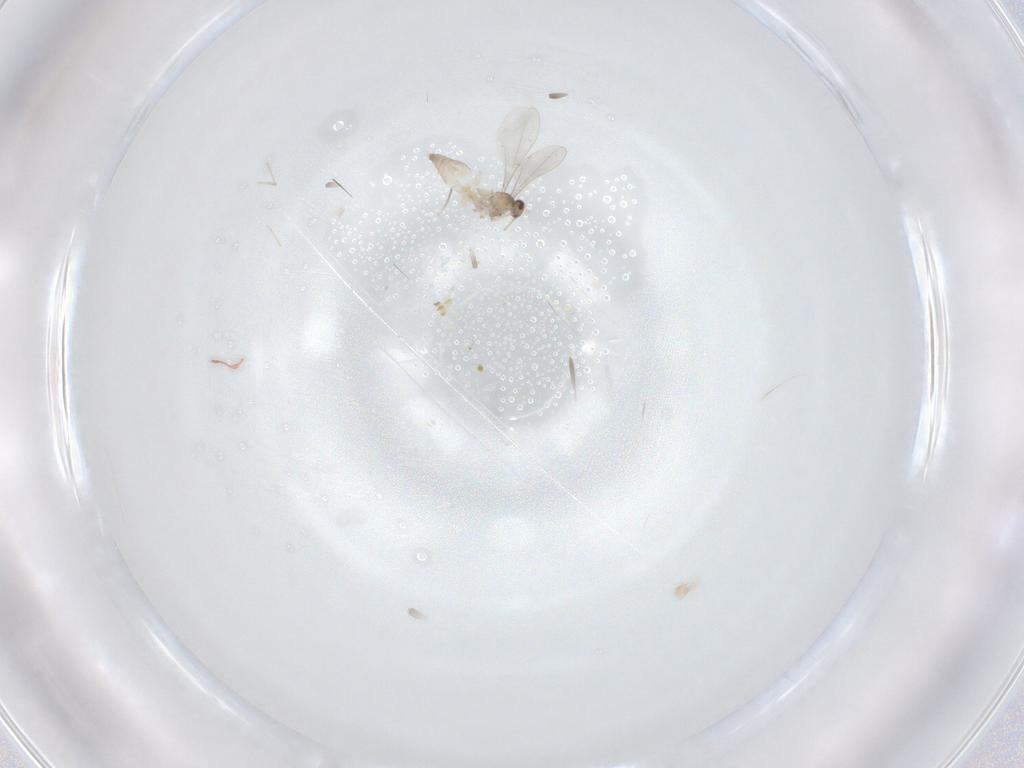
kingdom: Animalia
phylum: Arthropoda
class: Insecta
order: Diptera
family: Cecidomyiidae
